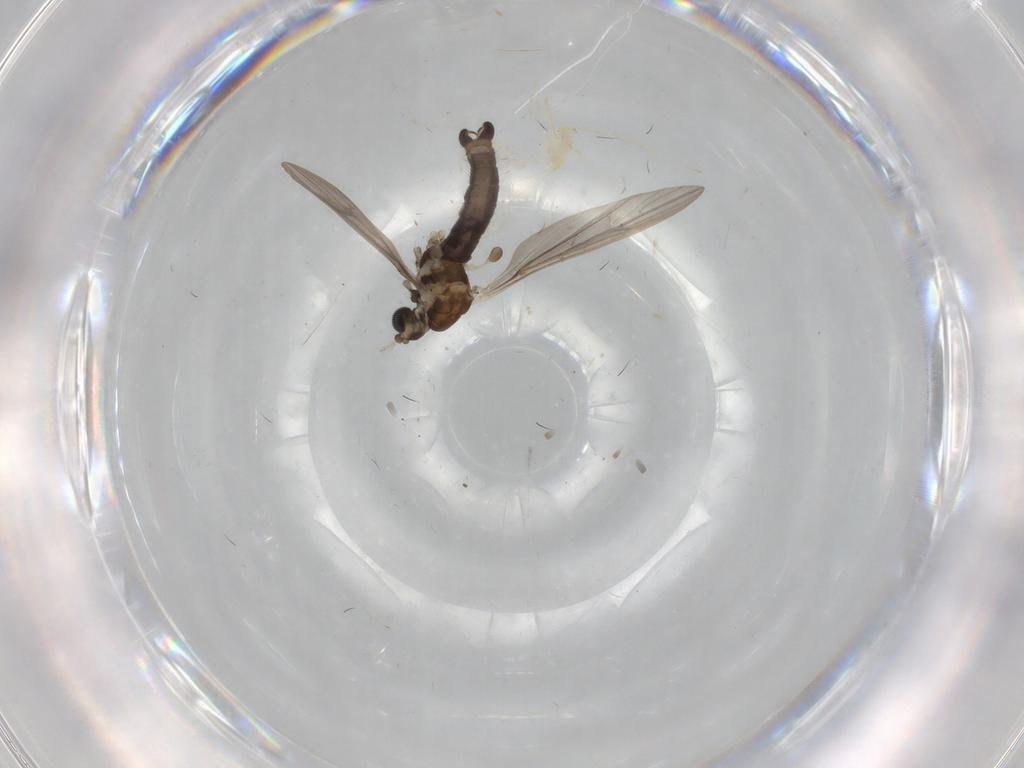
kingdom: Animalia
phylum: Arthropoda
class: Insecta
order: Diptera
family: Limoniidae
